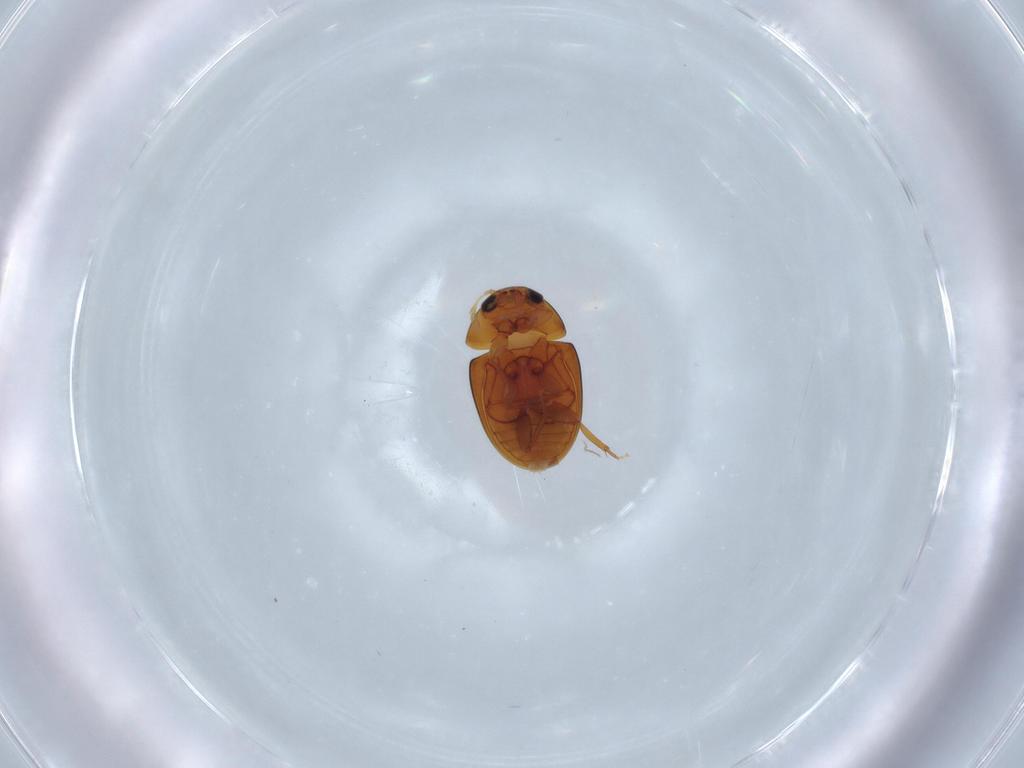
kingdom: Animalia
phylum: Arthropoda
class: Insecta
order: Coleoptera
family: Phalacridae
